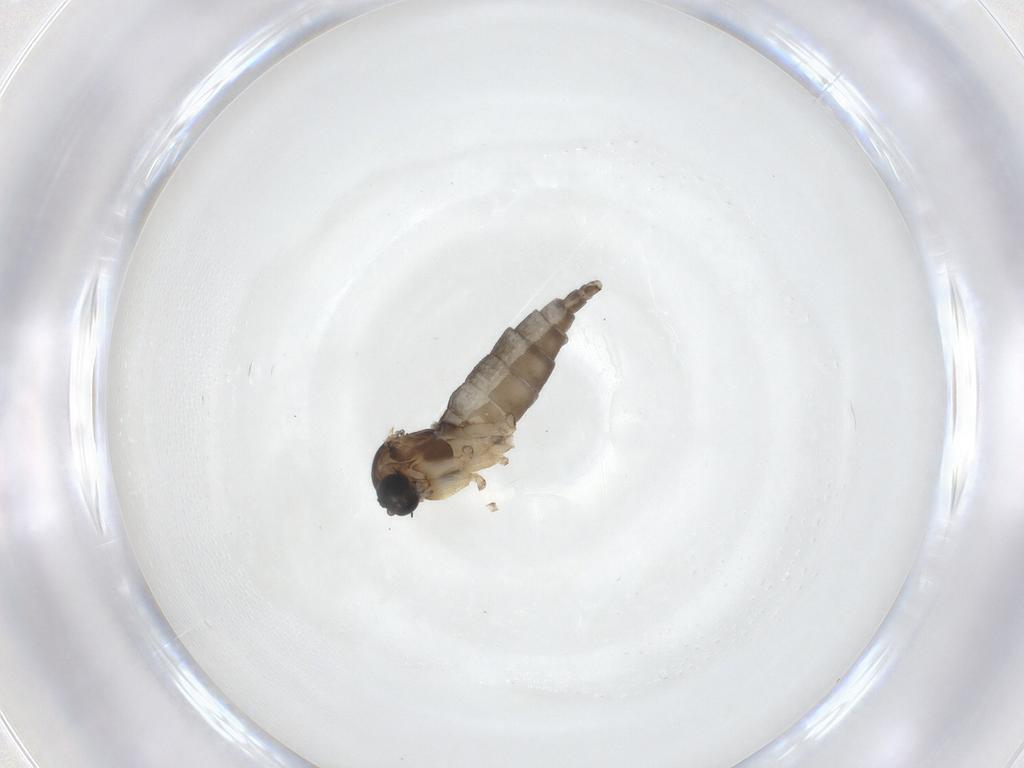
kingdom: Animalia
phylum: Arthropoda
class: Insecta
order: Diptera
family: Sciaridae
